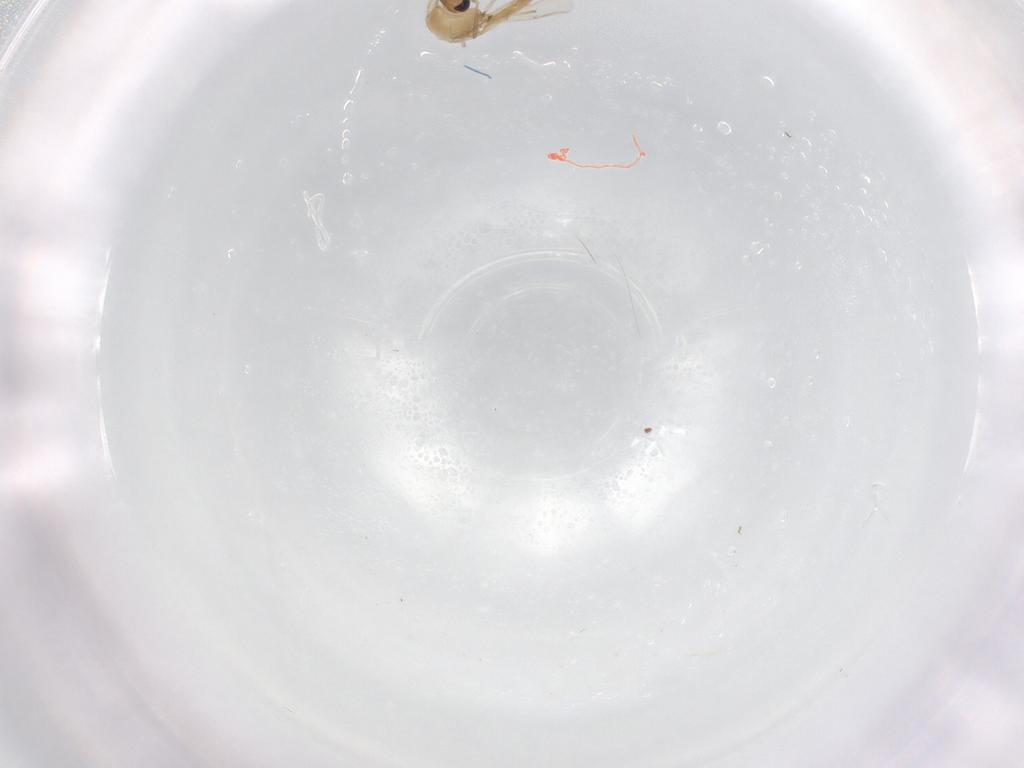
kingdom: Animalia
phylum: Arthropoda
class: Insecta
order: Diptera
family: Chironomidae
